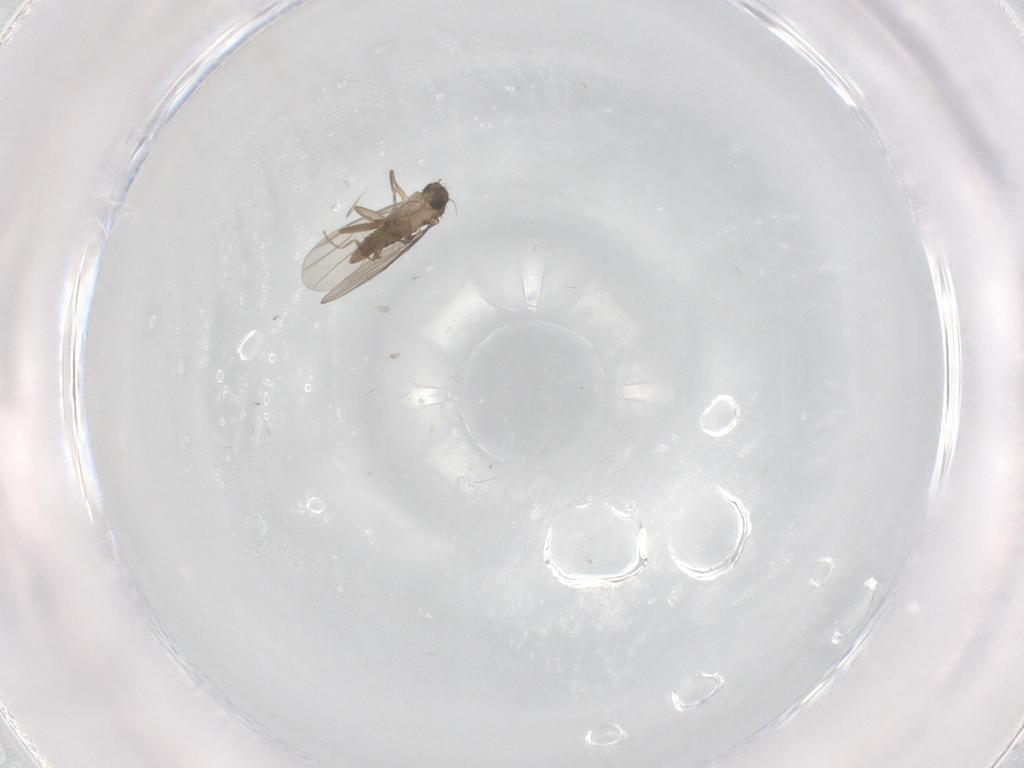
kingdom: Animalia
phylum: Arthropoda
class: Insecta
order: Diptera
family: Phoridae
